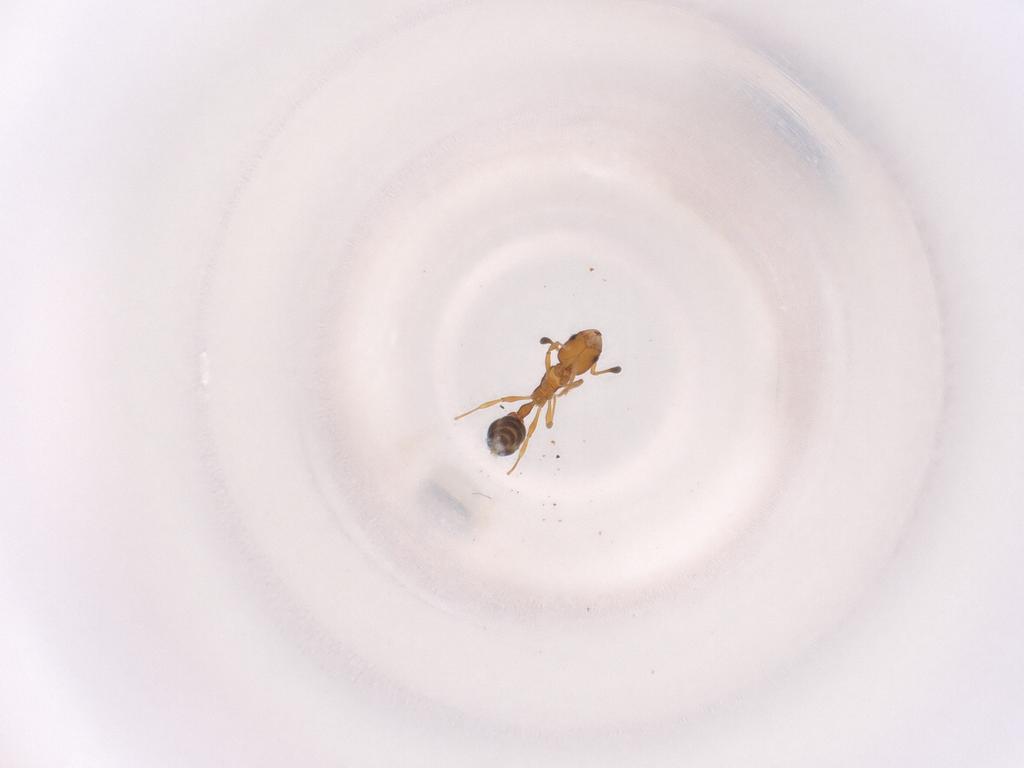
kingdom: Animalia
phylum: Arthropoda
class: Insecta
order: Hymenoptera
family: Formicidae
